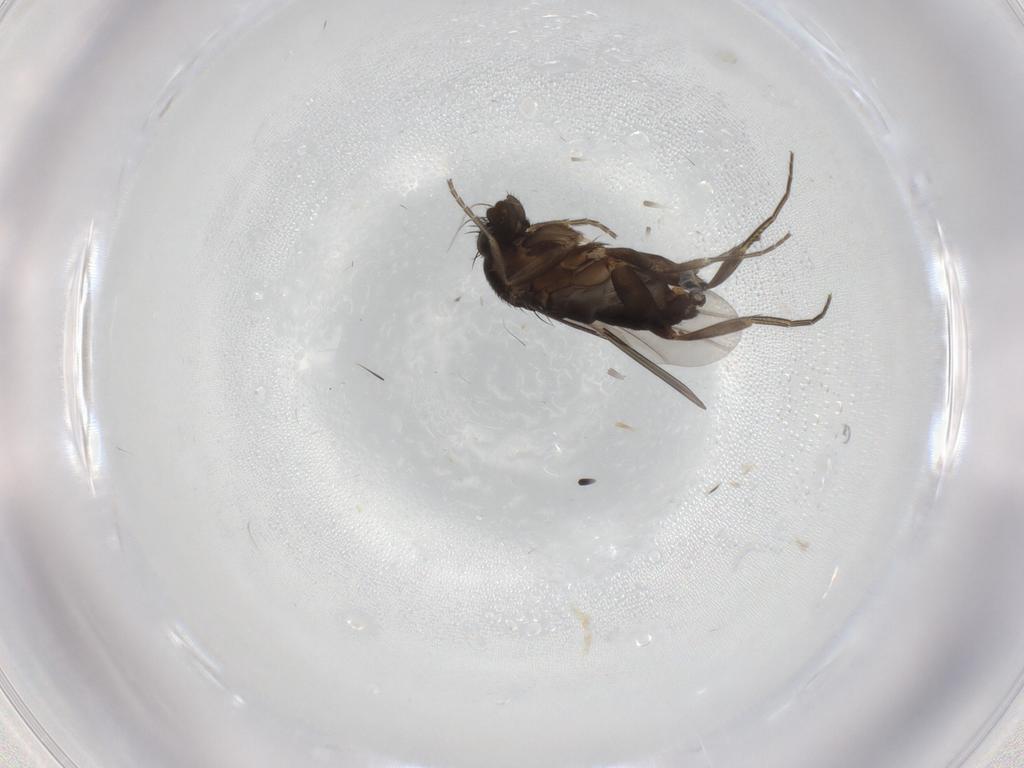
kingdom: Animalia
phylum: Arthropoda
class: Insecta
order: Diptera
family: Phoridae
